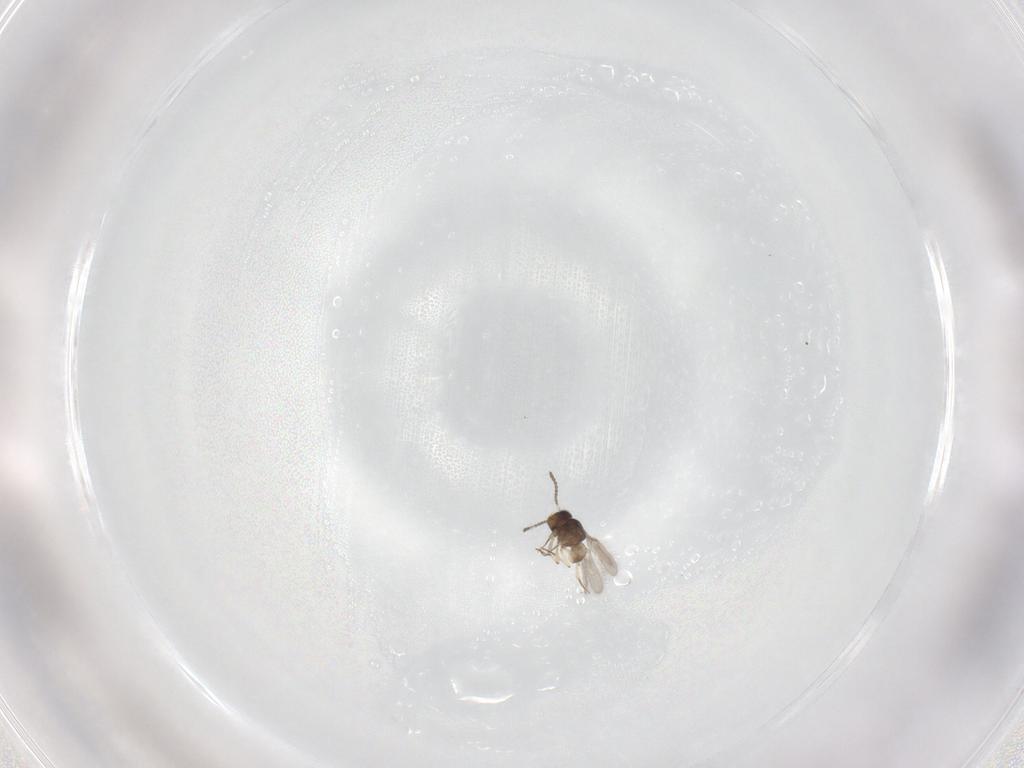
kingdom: Animalia
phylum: Arthropoda
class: Insecta
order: Hymenoptera
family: Scelionidae
